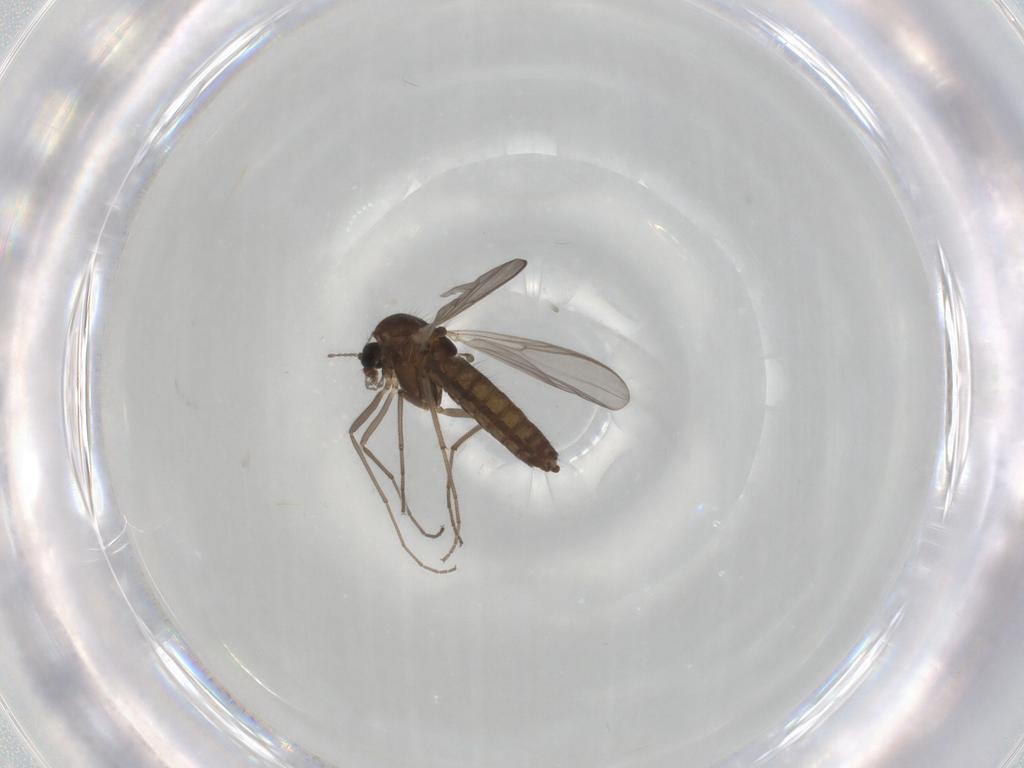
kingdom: Animalia
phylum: Arthropoda
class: Insecta
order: Diptera
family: Chironomidae
